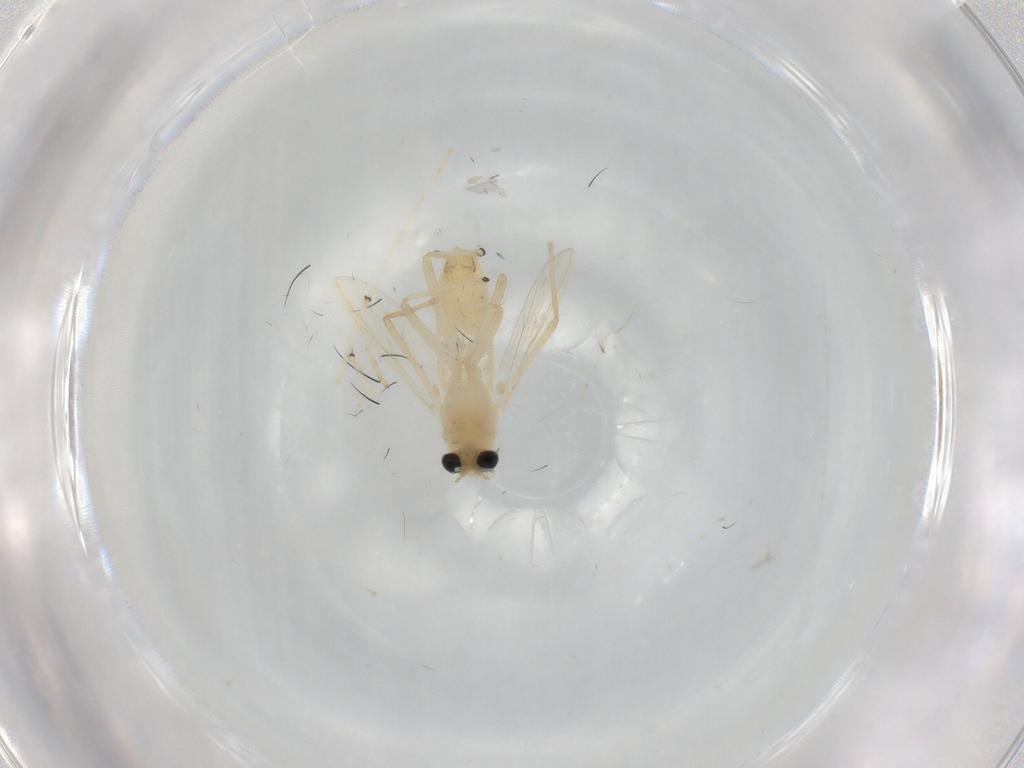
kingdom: Animalia
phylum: Arthropoda
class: Insecta
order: Diptera
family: Chironomidae
